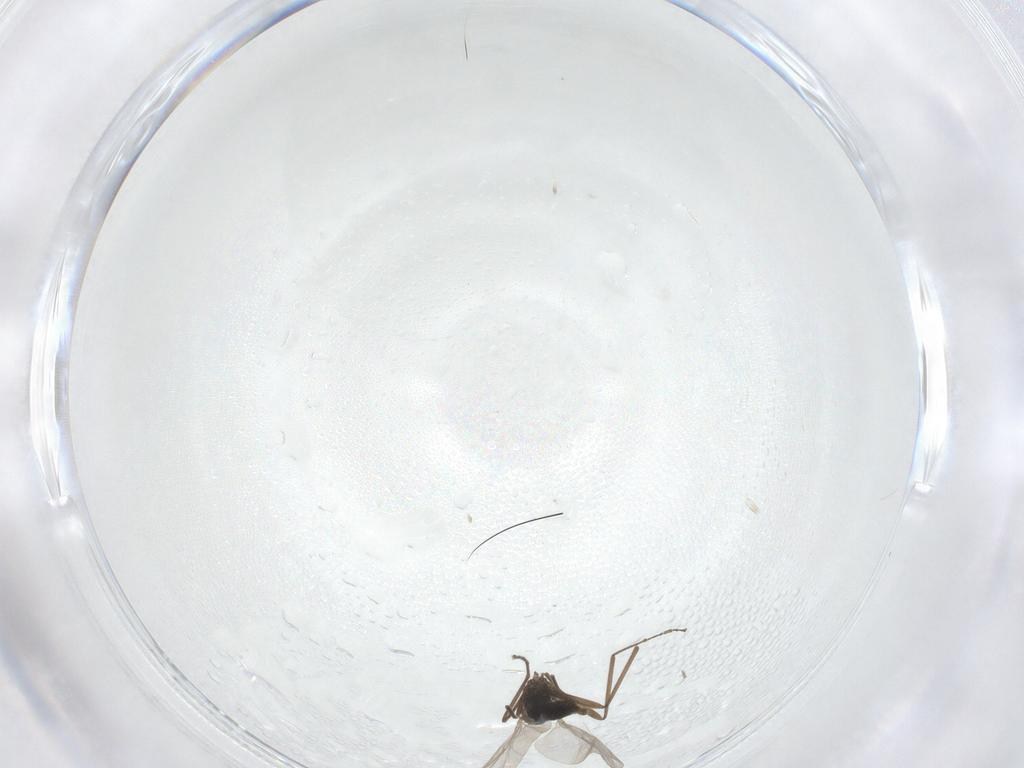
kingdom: Animalia
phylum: Arthropoda
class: Insecta
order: Diptera
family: Cecidomyiidae
